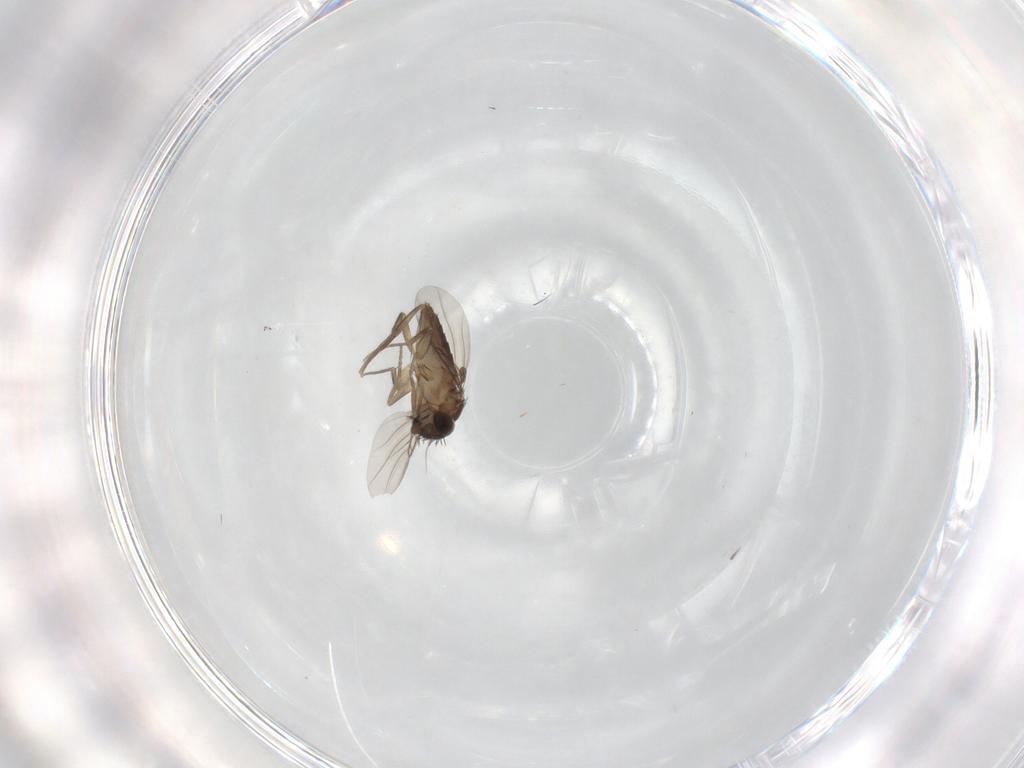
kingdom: Animalia
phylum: Arthropoda
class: Insecta
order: Diptera
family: Phoridae
